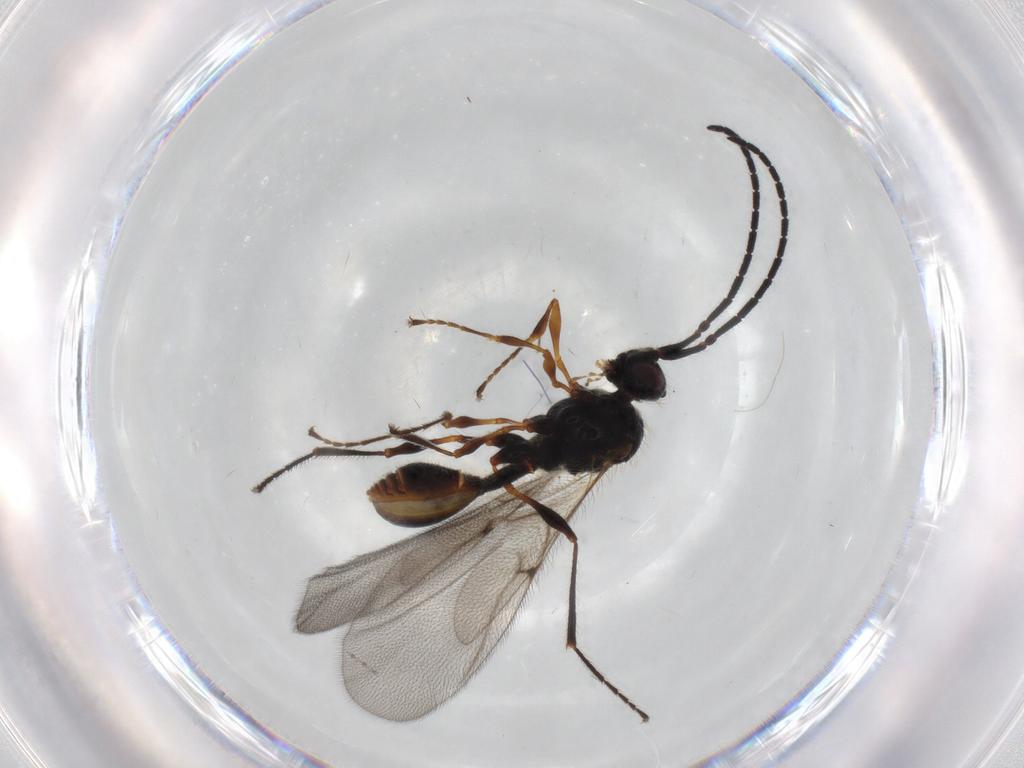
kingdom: Animalia
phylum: Arthropoda
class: Insecta
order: Hymenoptera
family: Diapriidae
